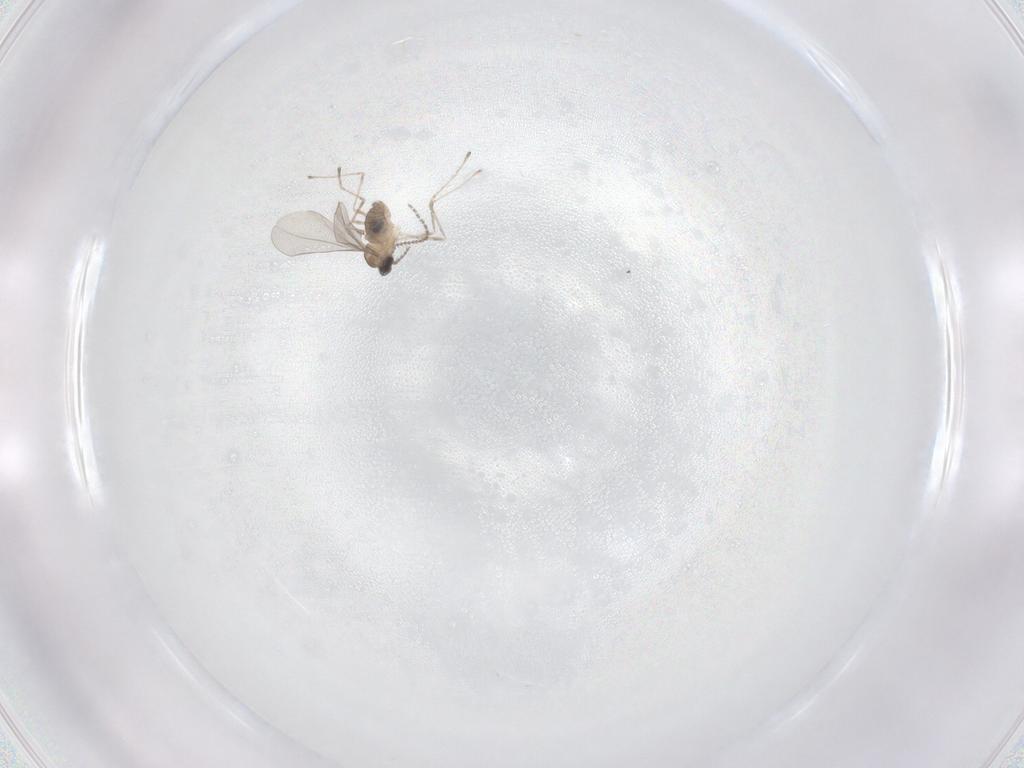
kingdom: Animalia
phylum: Arthropoda
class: Insecta
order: Diptera
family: Cecidomyiidae
